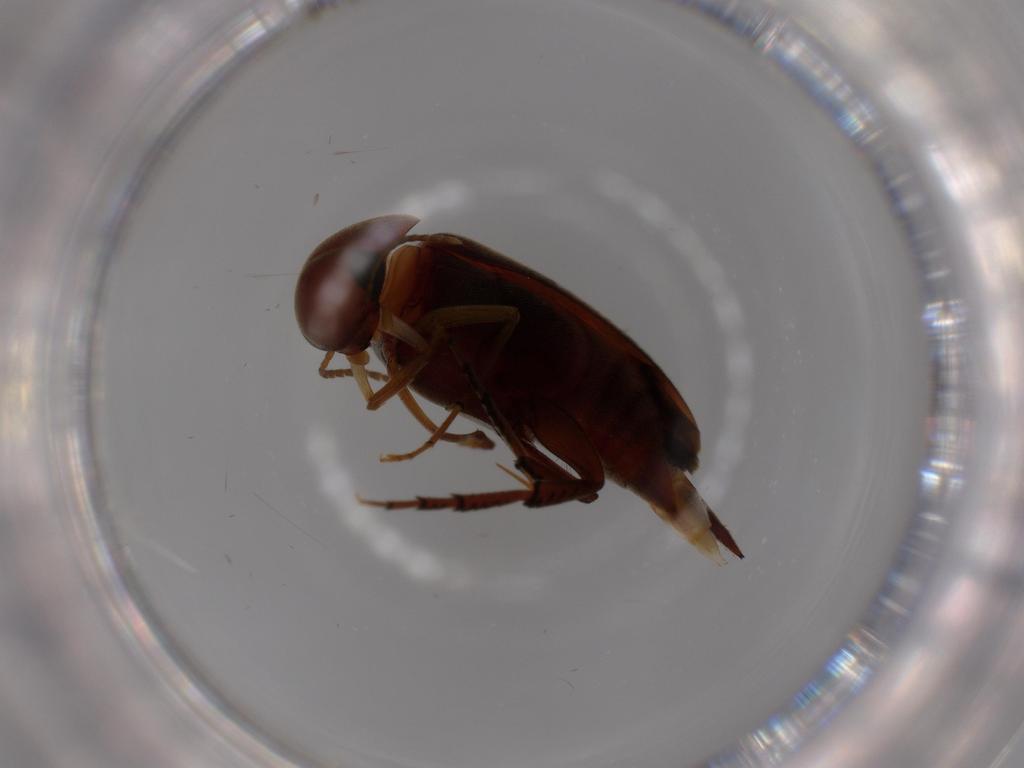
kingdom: Animalia
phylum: Arthropoda
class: Insecta
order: Coleoptera
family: Mordellidae
